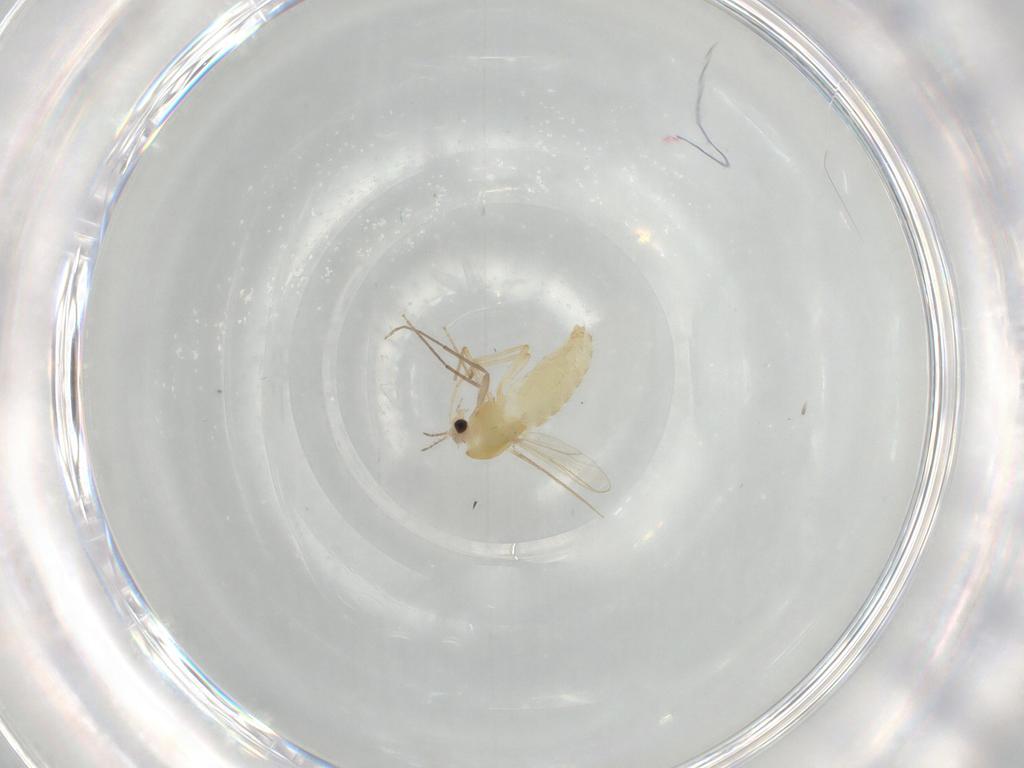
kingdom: Animalia
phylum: Arthropoda
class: Insecta
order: Diptera
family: Chironomidae
